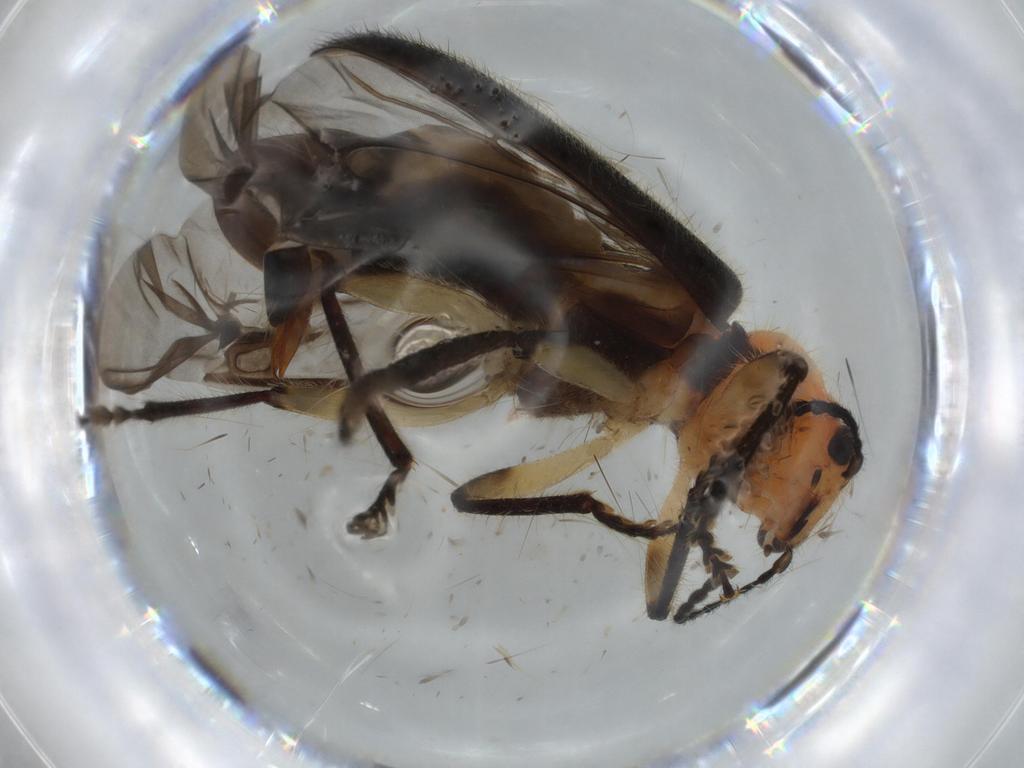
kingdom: Animalia
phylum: Arthropoda
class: Insecta
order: Coleoptera
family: Cleridae
